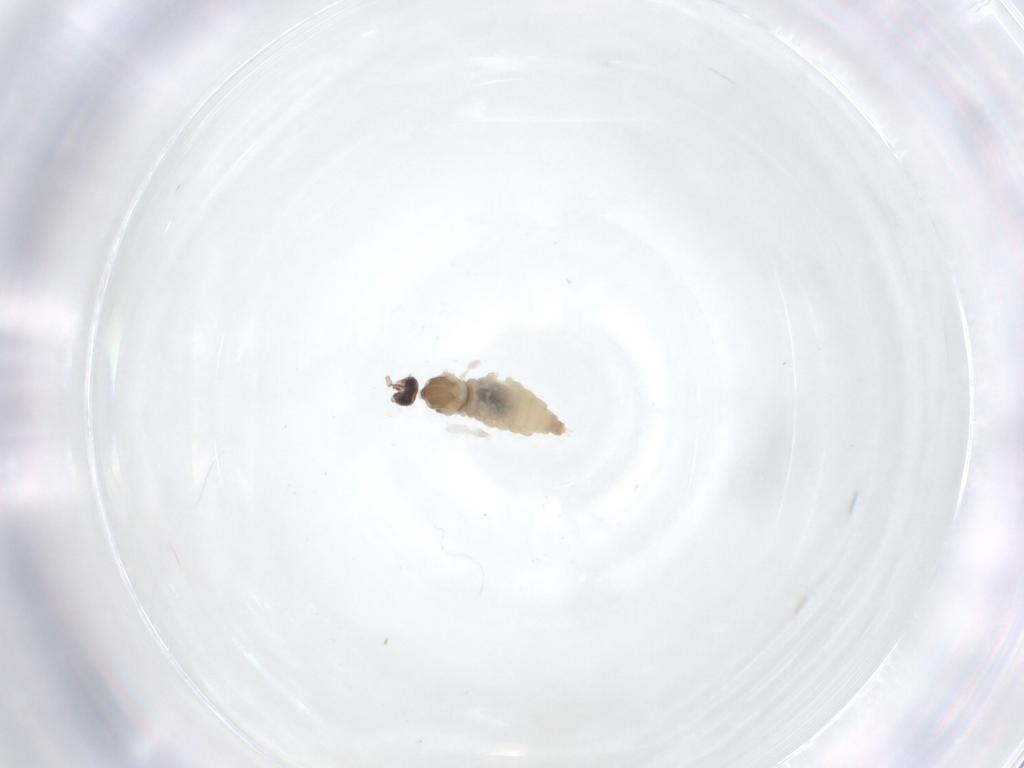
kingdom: Animalia
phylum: Arthropoda
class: Insecta
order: Diptera
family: Cecidomyiidae
